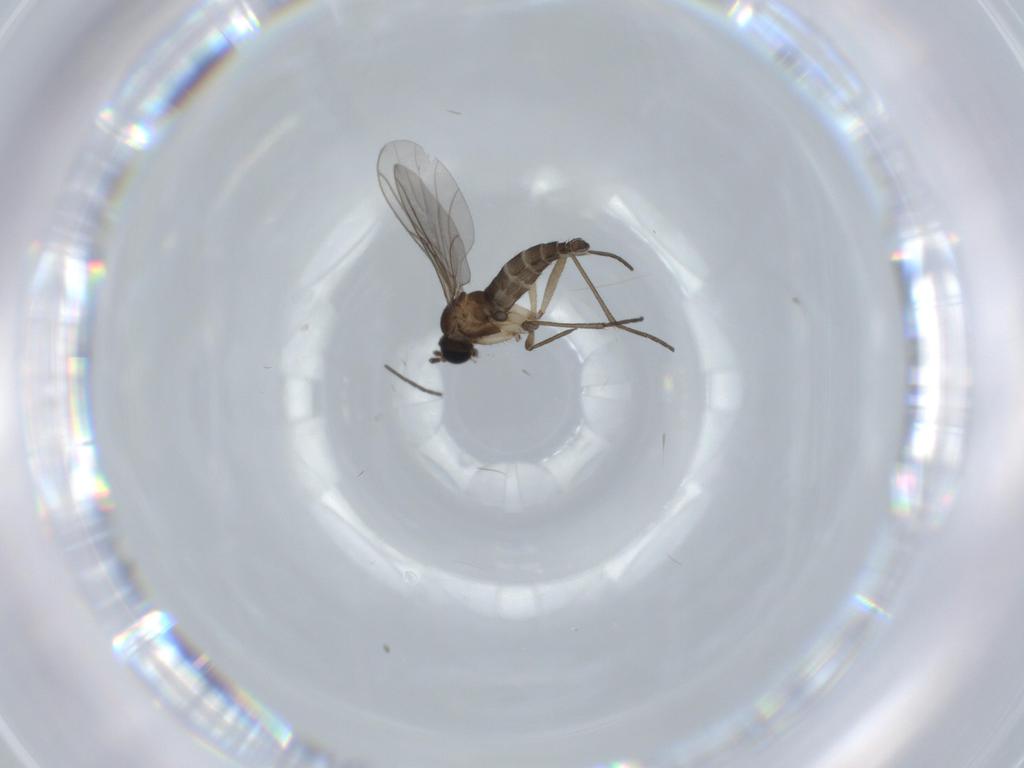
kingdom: Animalia
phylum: Arthropoda
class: Insecta
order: Diptera
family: Sciaridae
